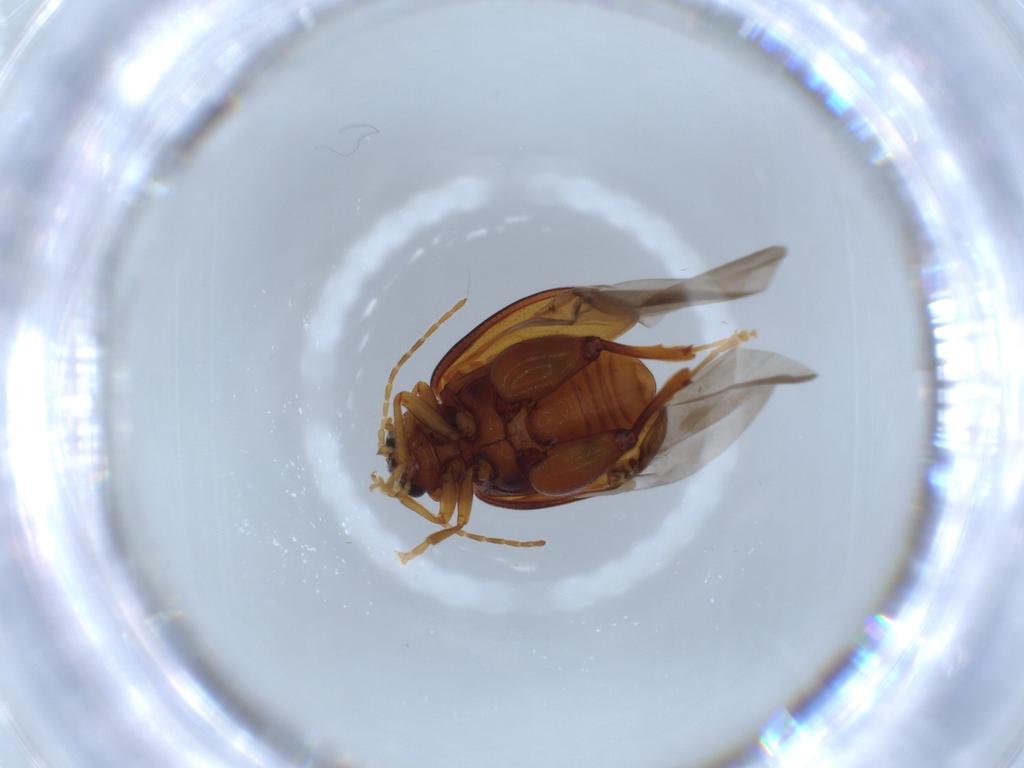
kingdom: Animalia
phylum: Arthropoda
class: Insecta
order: Coleoptera
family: Chrysomelidae
